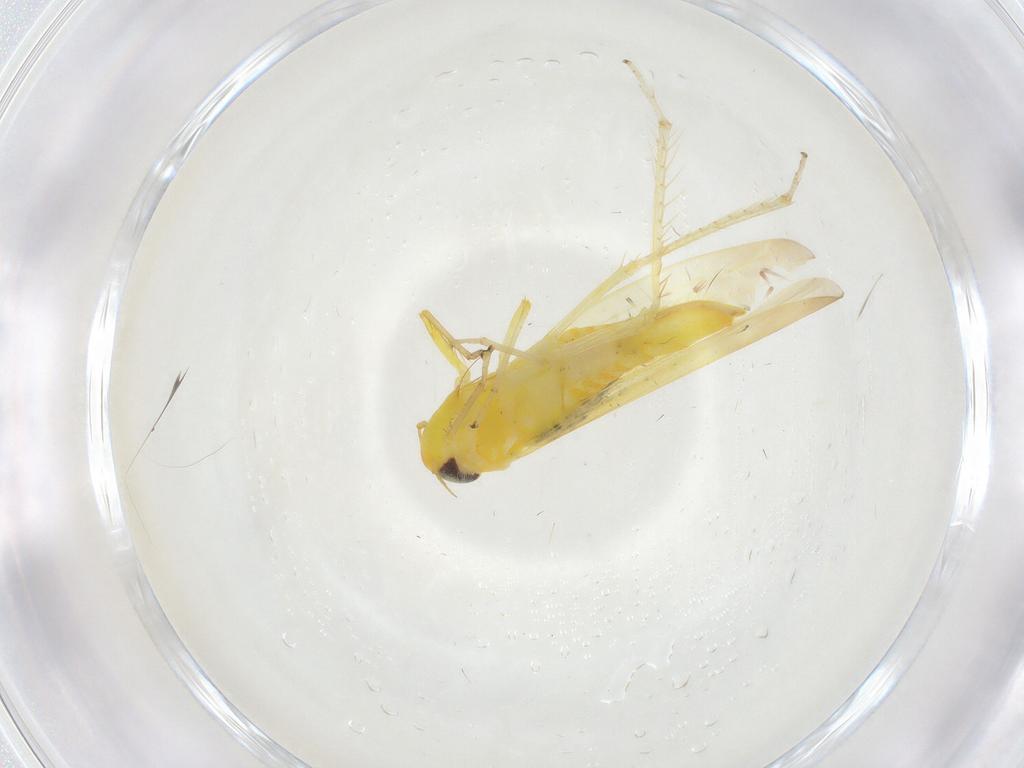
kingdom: Animalia
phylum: Arthropoda
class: Insecta
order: Hemiptera
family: Cicadellidae
